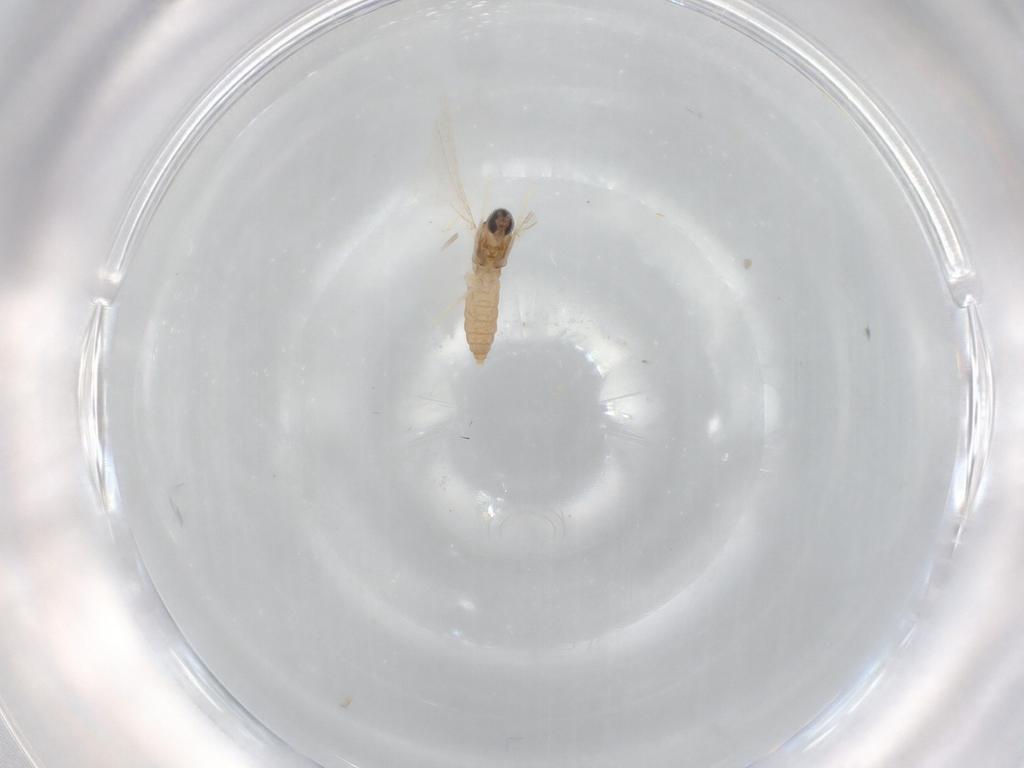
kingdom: Animalia
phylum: Arthropoda
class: Insecta
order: Diptera
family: Cecidomyiidae
